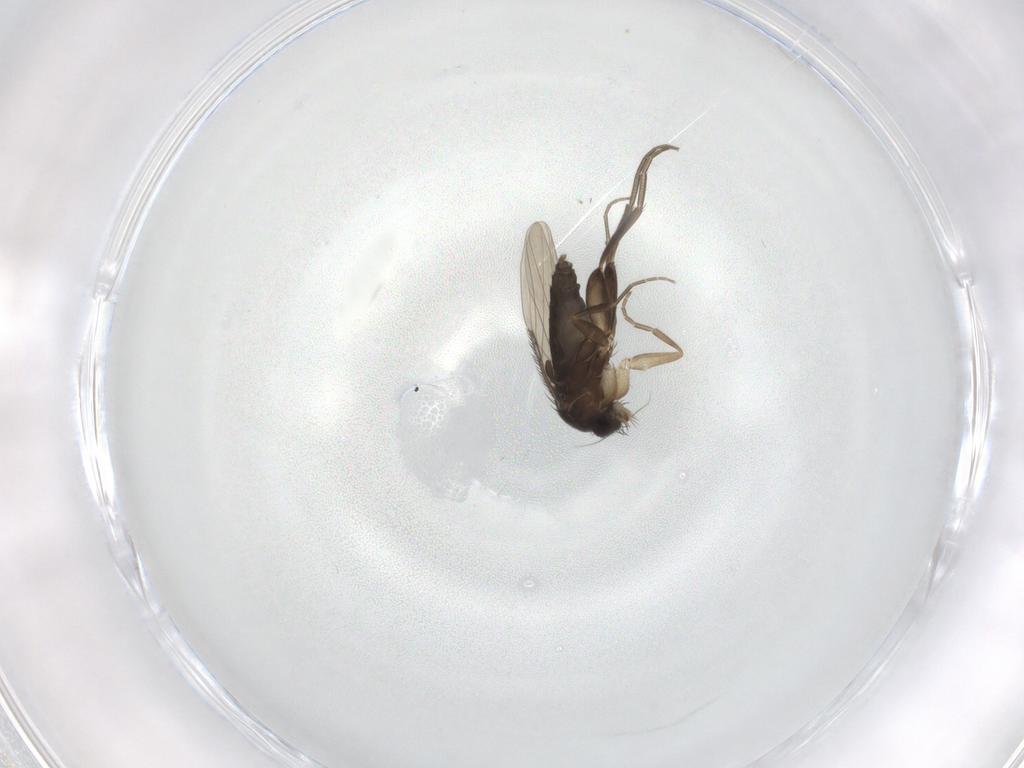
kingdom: Animalia
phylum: Arthropoda
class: Insecta
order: Diptera
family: Phoridae
